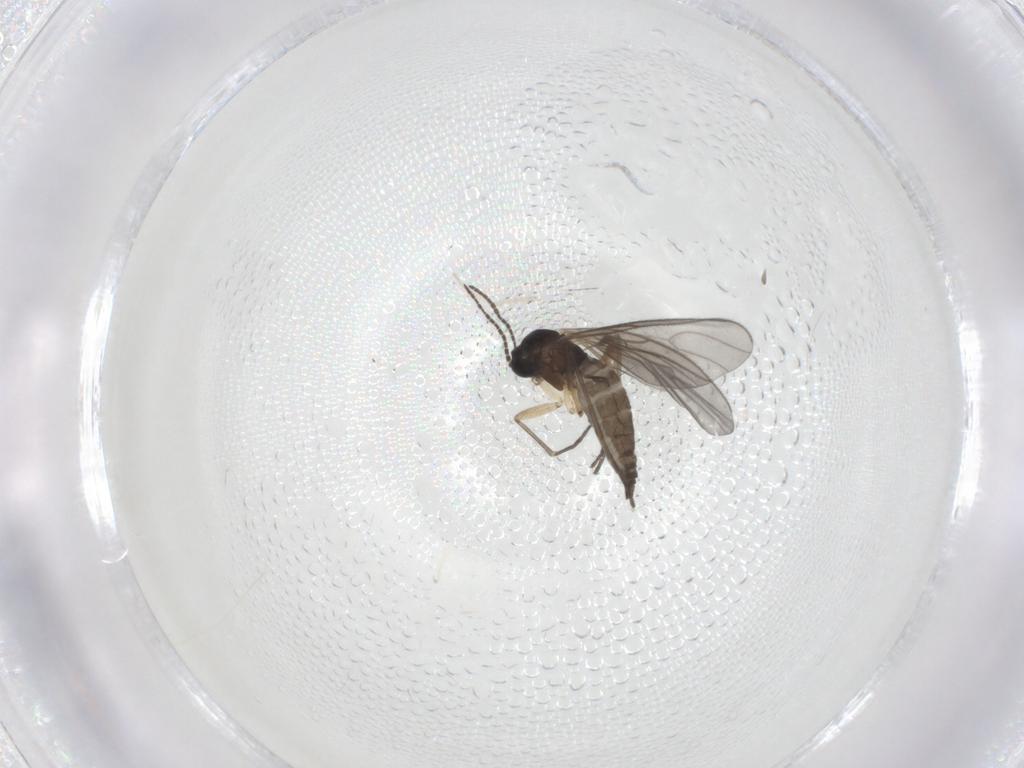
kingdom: Animalia
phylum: Arthropoda
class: Insecta
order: Diptera
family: Sciaridae
